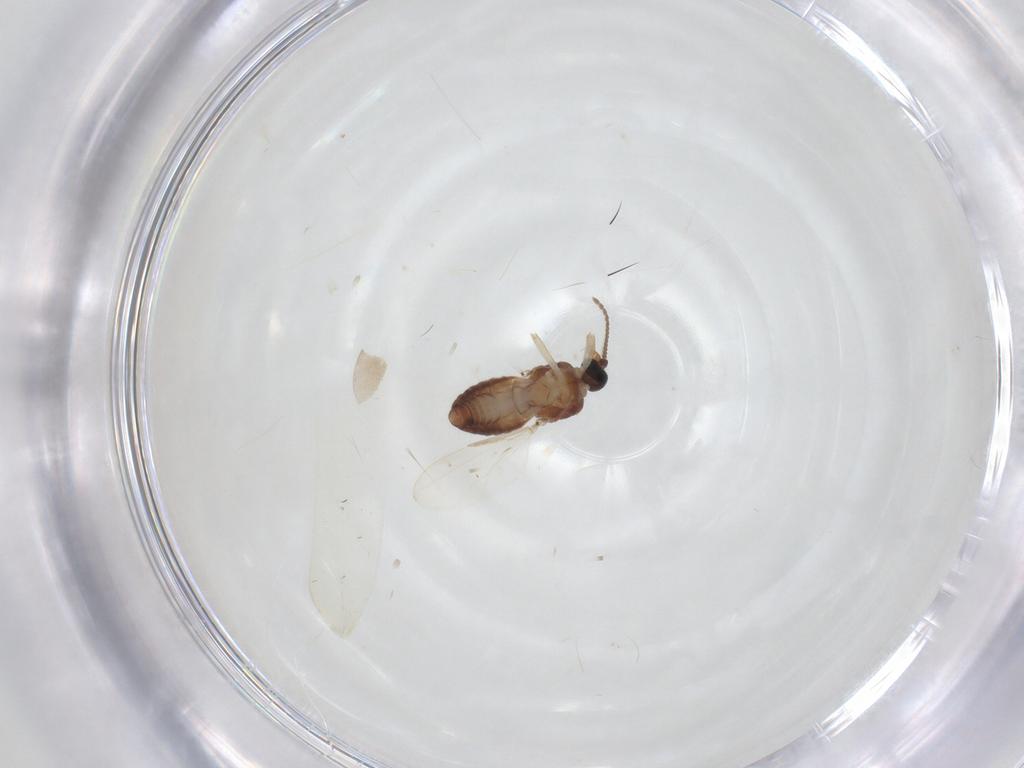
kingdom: Animalia
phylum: Arthropoda
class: Insecta
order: Diptera
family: Ceratopogonidae
